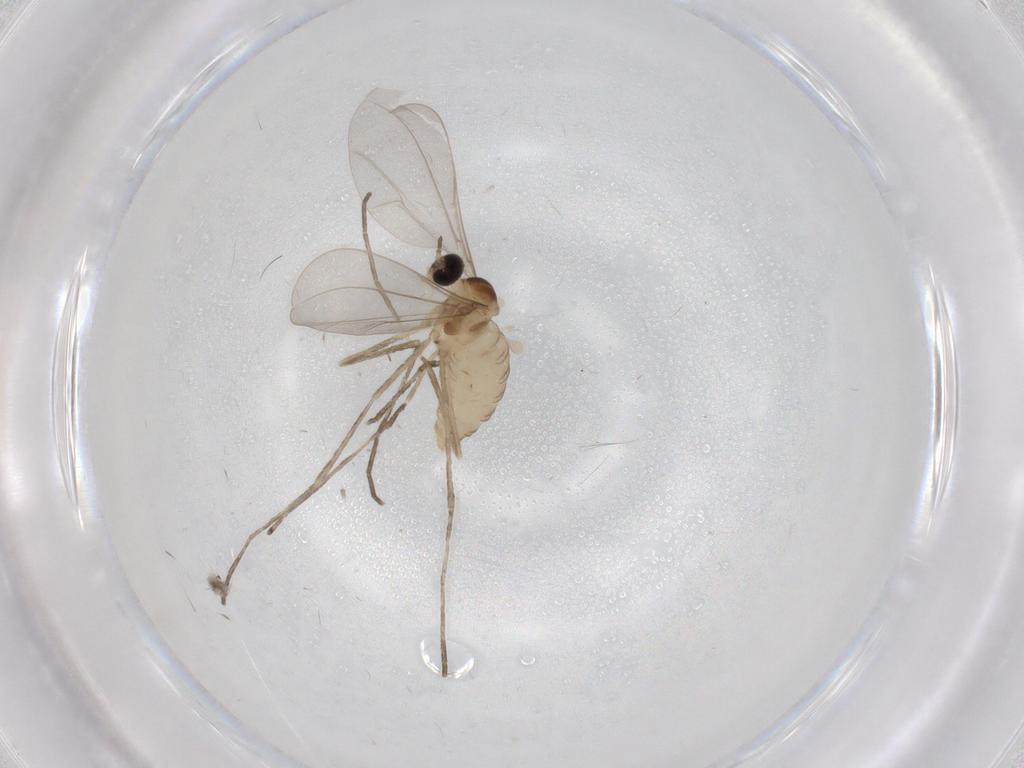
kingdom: Animalia
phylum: Arthropoda
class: Insecta
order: Diptera
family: Cecidomyiidae
